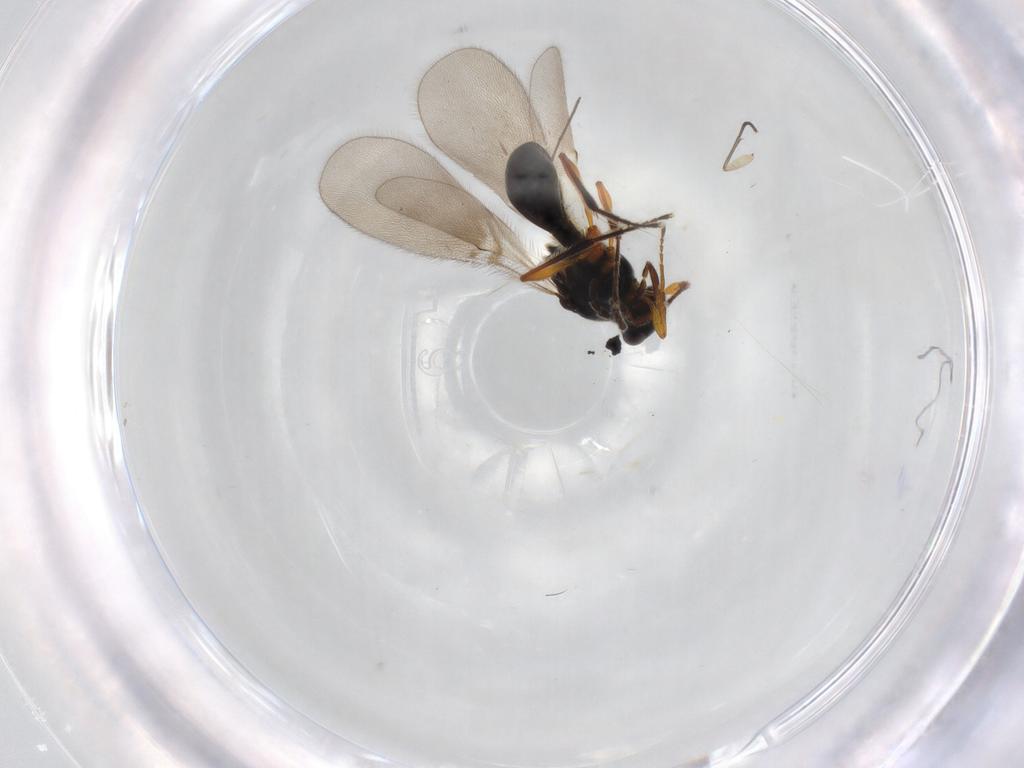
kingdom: Animalia
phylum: Arthropoda
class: Insecta
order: Hymenoptera
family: Platygastridae
